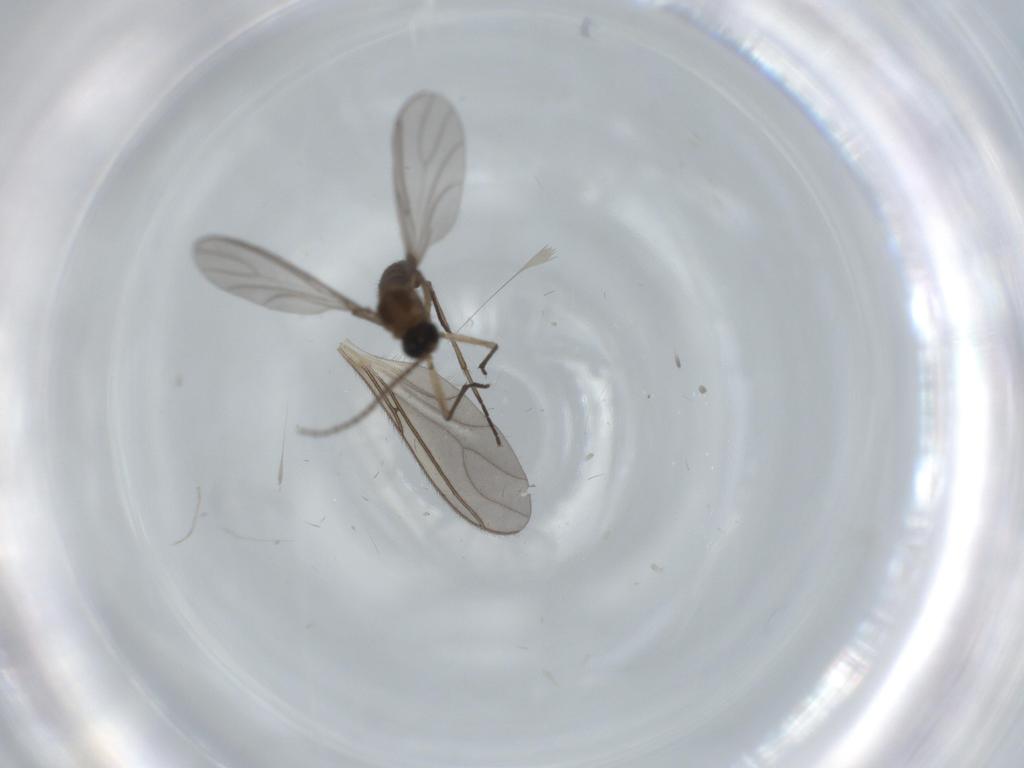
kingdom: Animalia
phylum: Arthropoda
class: Insecta
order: Diptera
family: Sciaridae
